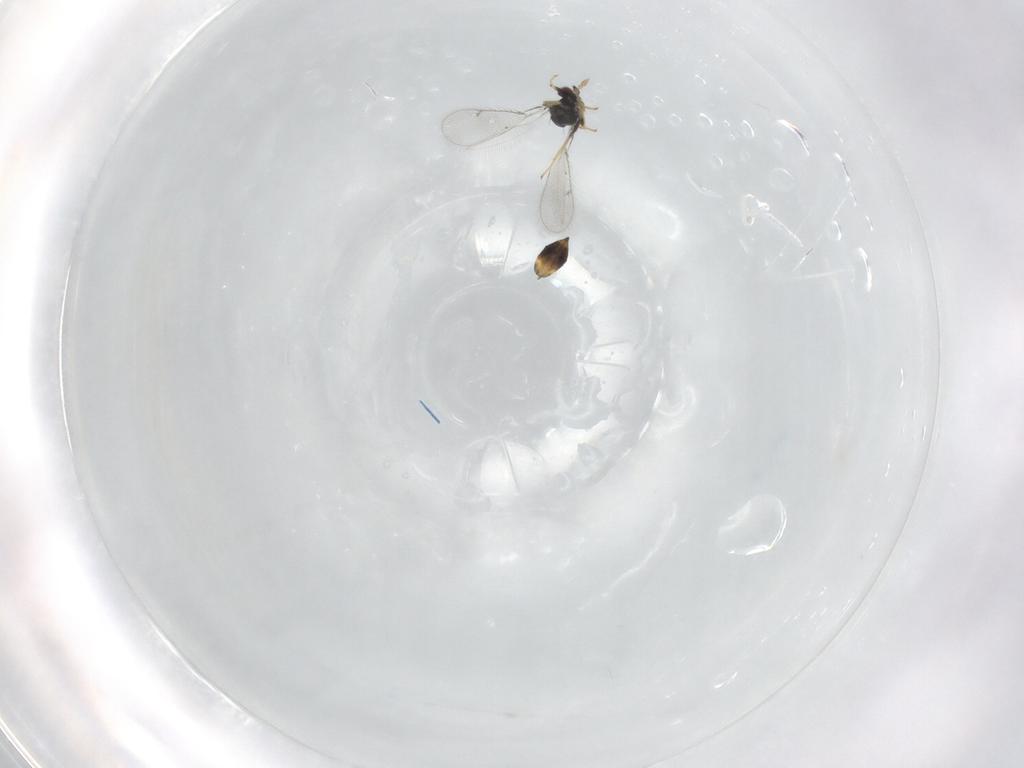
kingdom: Animalia
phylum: Arthropoda
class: Insecta
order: Hymenoptera
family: Eulophidae
